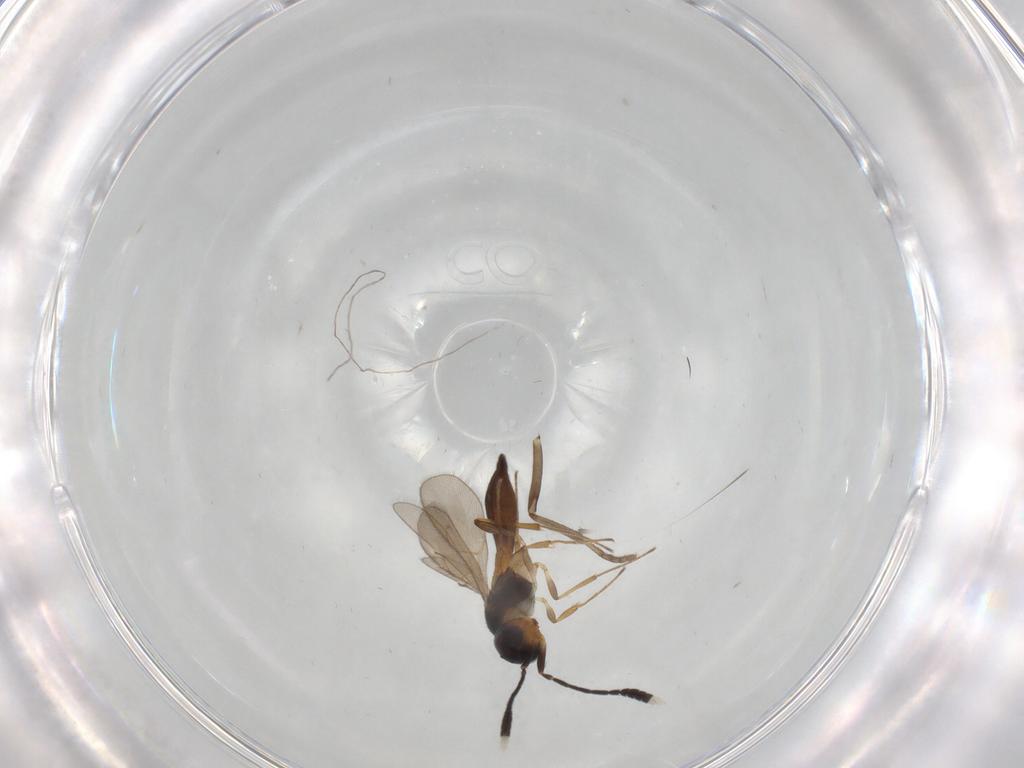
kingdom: Animalia
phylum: Arthropoda
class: Insecta
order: Hymenoptera
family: Scelionidae
